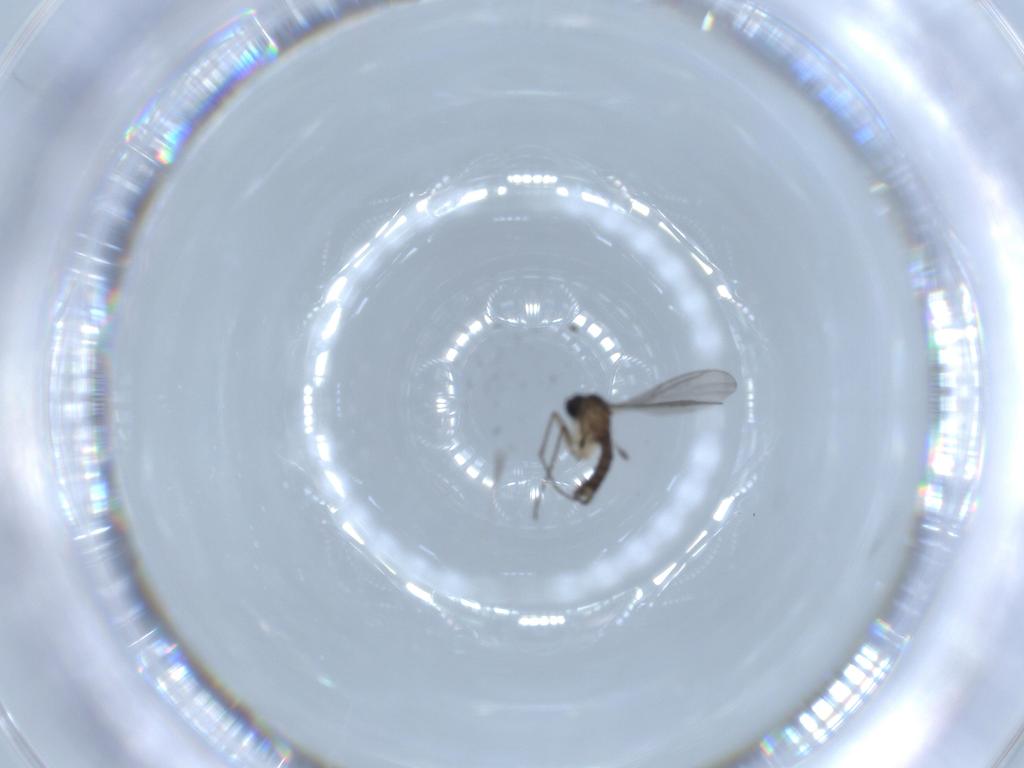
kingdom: Animalia
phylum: Arthropoda
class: Insecta
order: Diptera
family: Sciaridae
